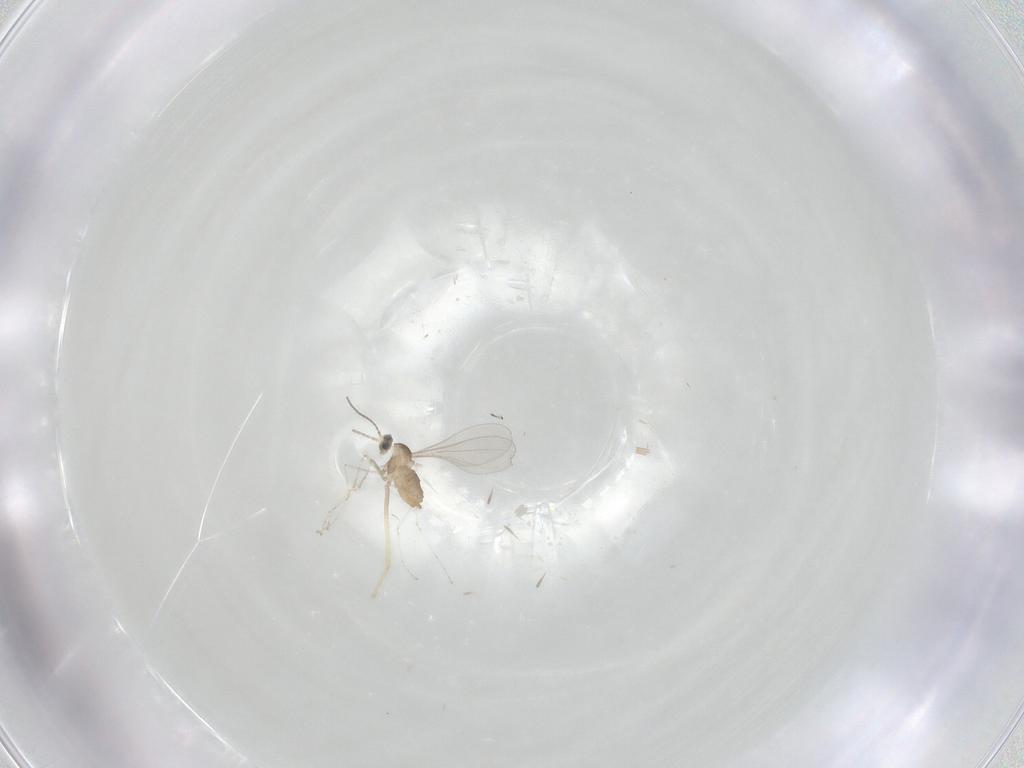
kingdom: Animalia
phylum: Arthropoda
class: Insecta
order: Diptera
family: Cecidomyiidae
